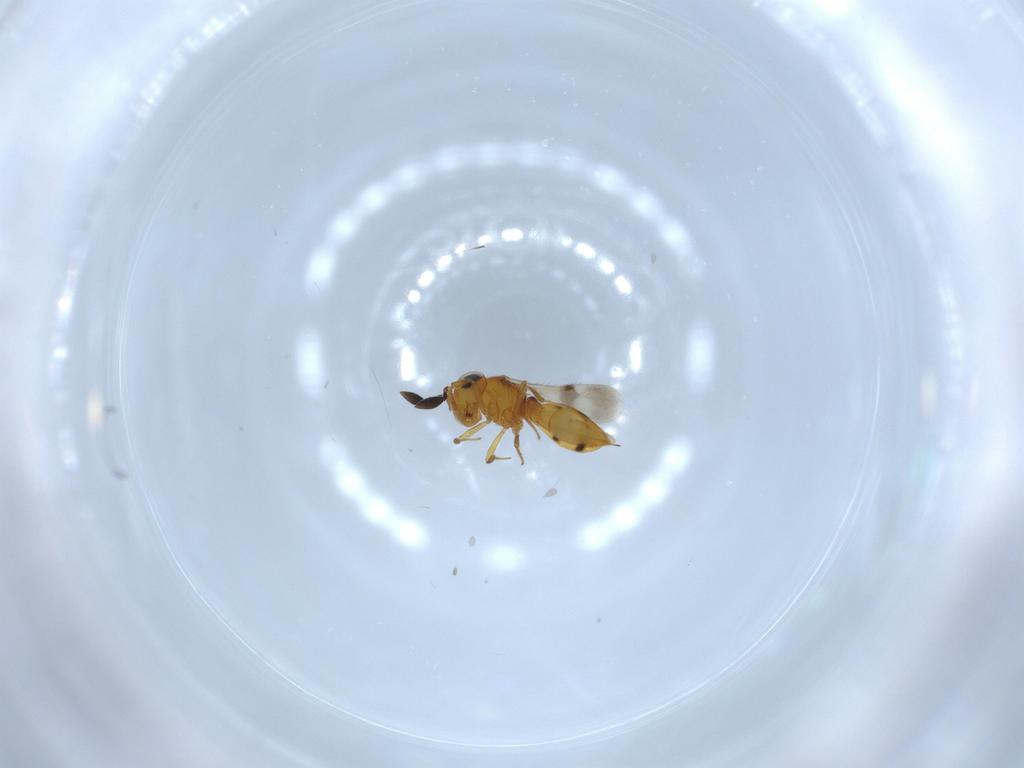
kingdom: Animalia
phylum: Arthropoda
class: Insecta
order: Hymenoptera
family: Scelionidae
